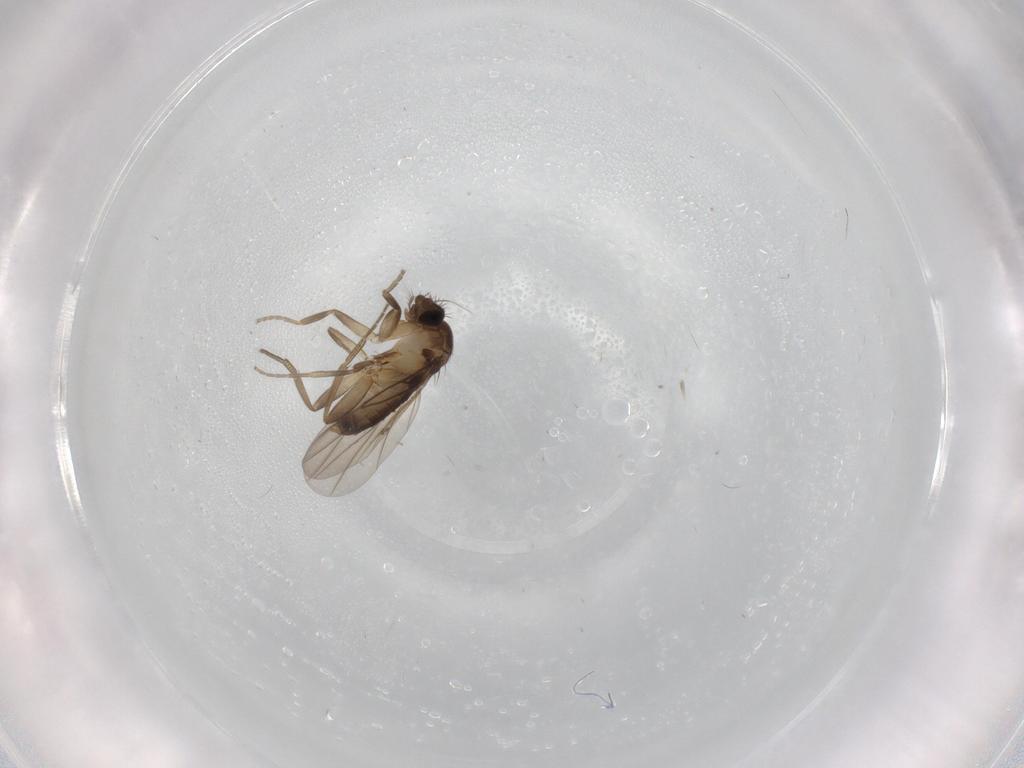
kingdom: Animalia
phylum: Arthropoda
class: Insecta
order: Diptera
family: Phoridae
